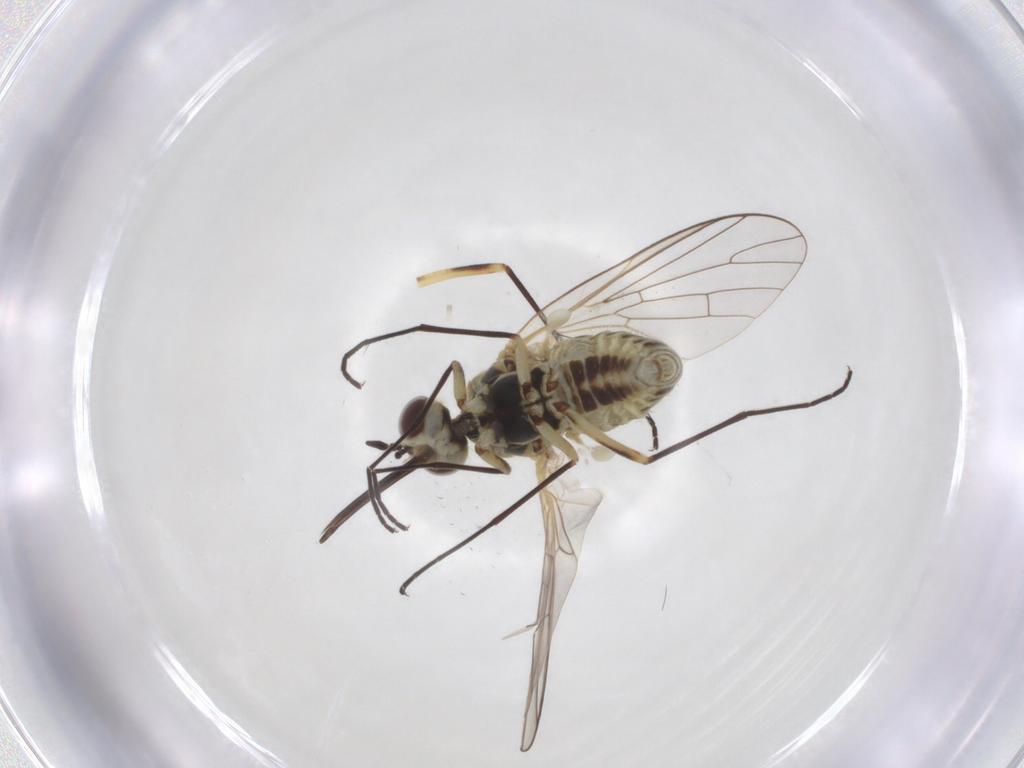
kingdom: Animalia
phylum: Arthropoda
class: Insecta
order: Diptera
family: Bombyliidae
